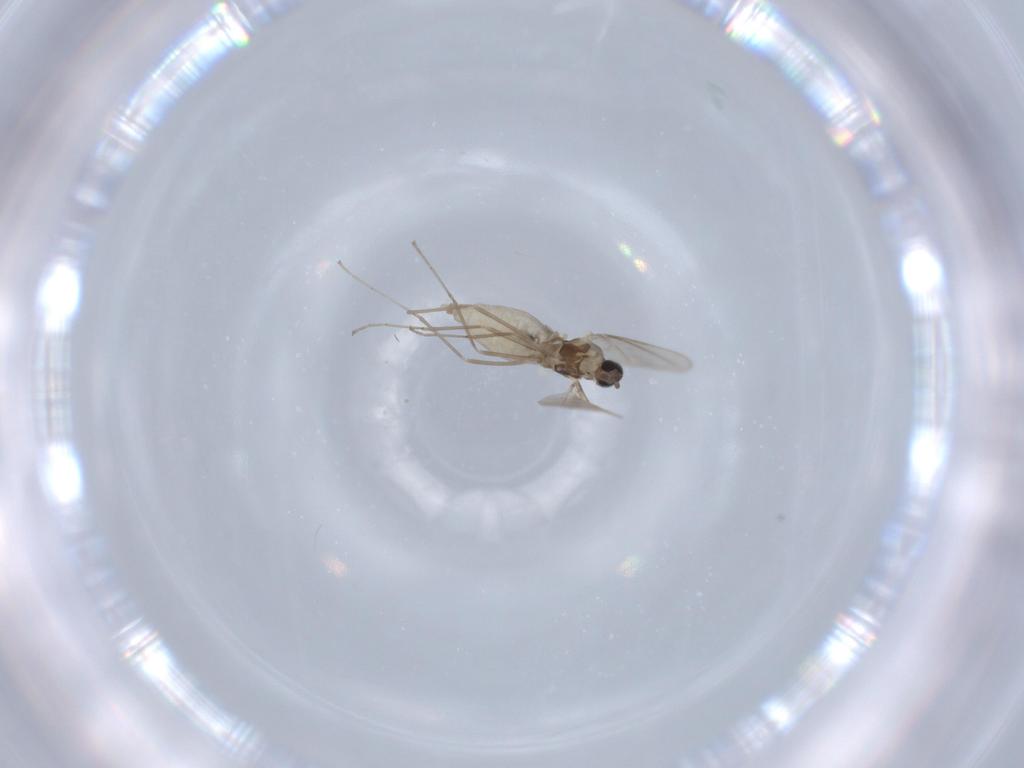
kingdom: Animalia
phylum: Arthropoda
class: Insecta
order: Diptera
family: Cecidomyiidae
